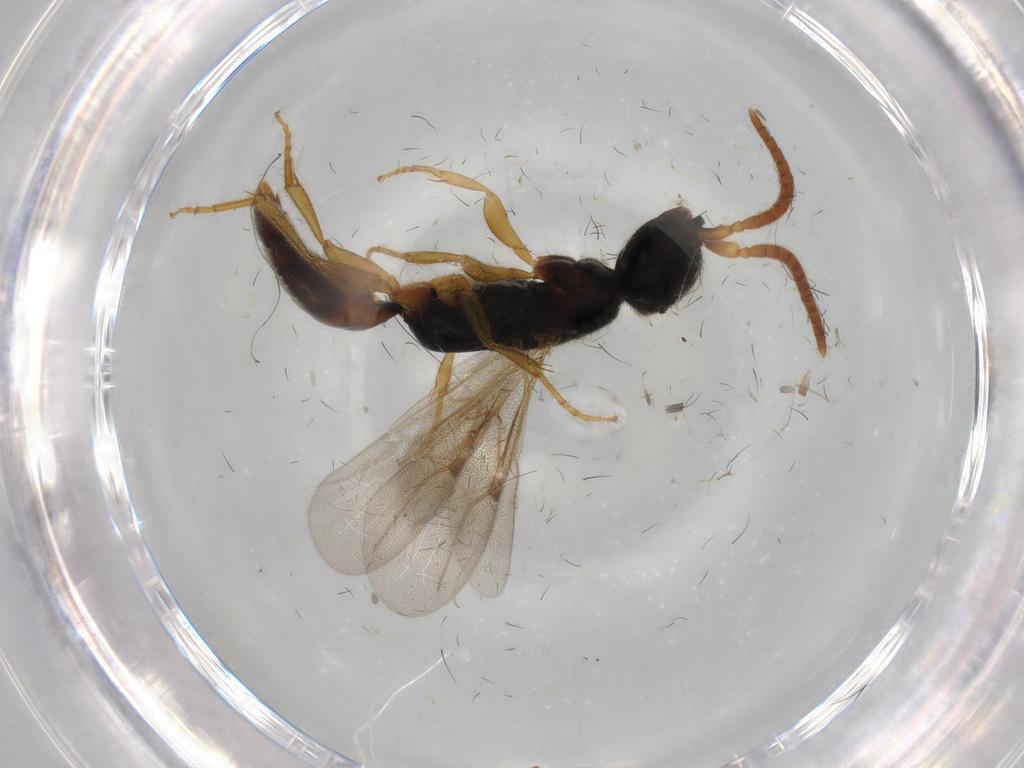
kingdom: Animalia
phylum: Arthropoda
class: Insecta
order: Hymenoptera
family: Bethylidae
